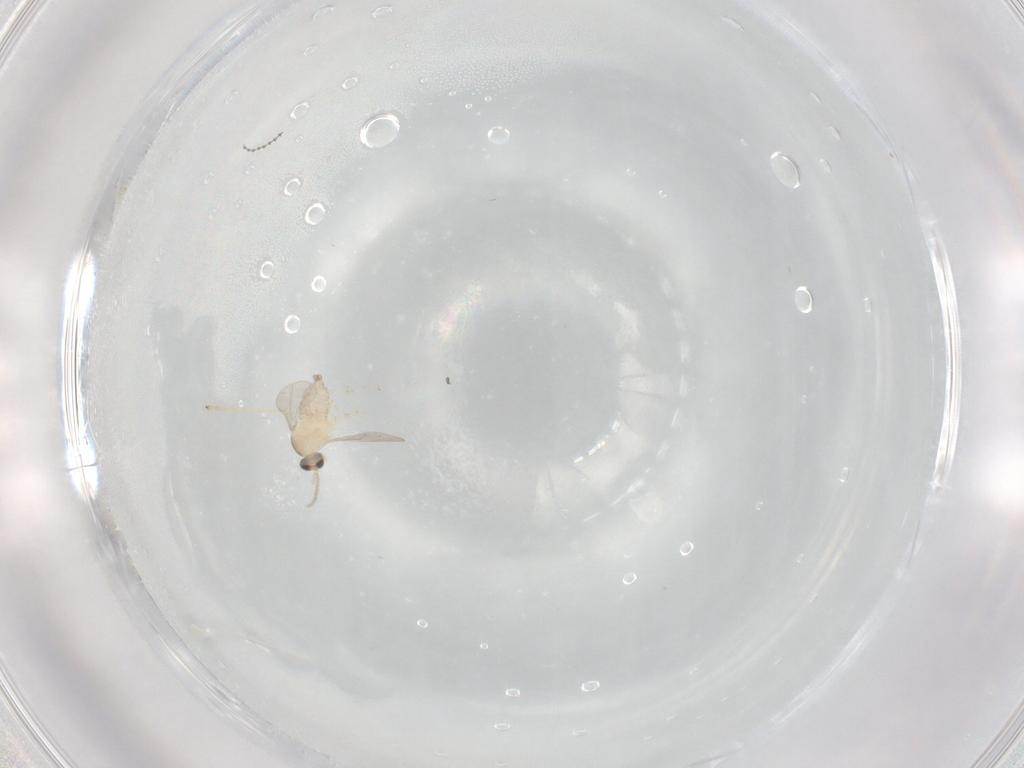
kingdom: Animalia
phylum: Arthropoda
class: Insecta
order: Diptera
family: Cecidomyiidae
